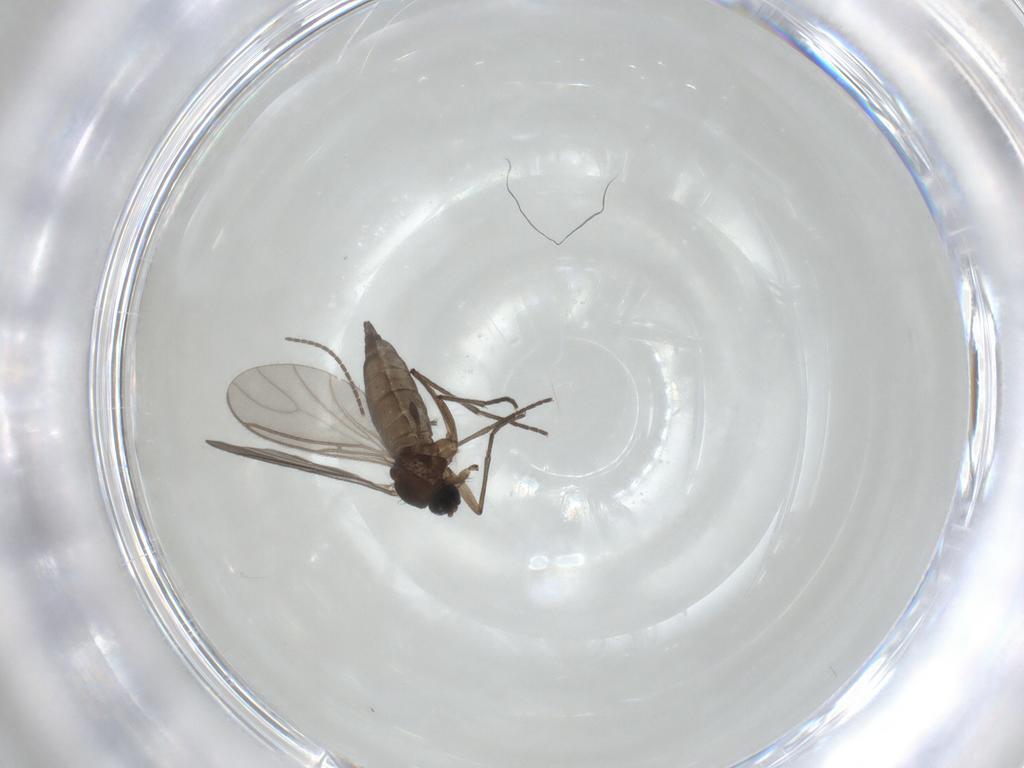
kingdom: Animalia
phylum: Arthropoda
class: Insecta
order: Diptera
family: Sciaridae
